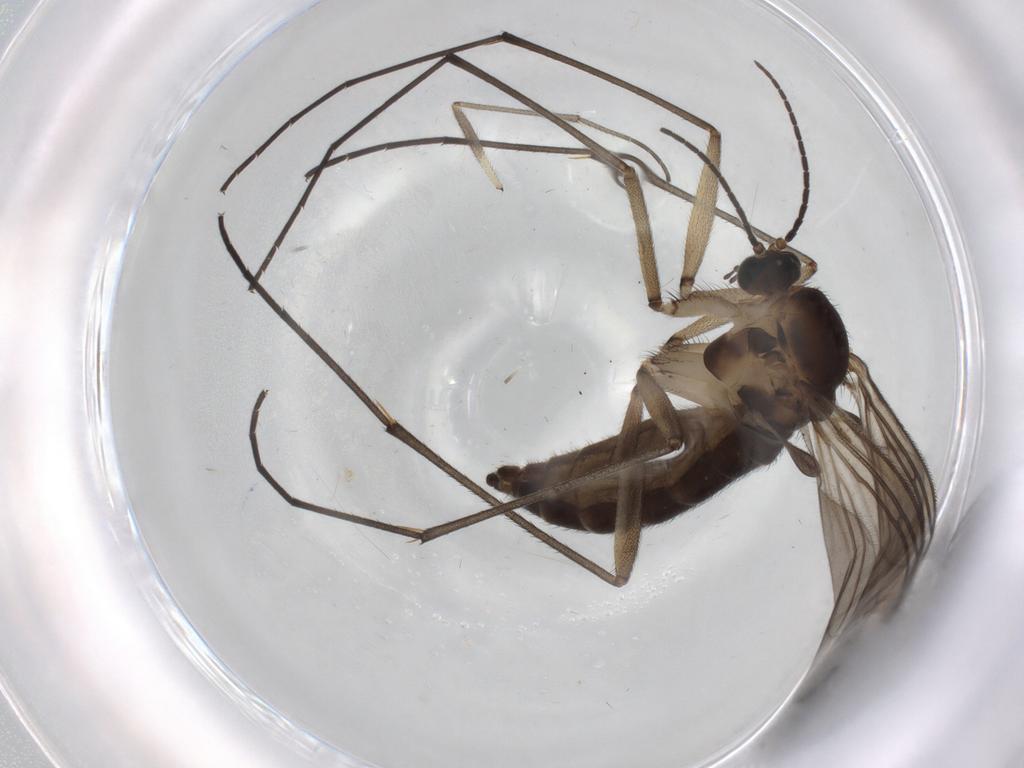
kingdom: Animalia
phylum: Arthropoda
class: Insecta
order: Diptera
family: Sciaridae
